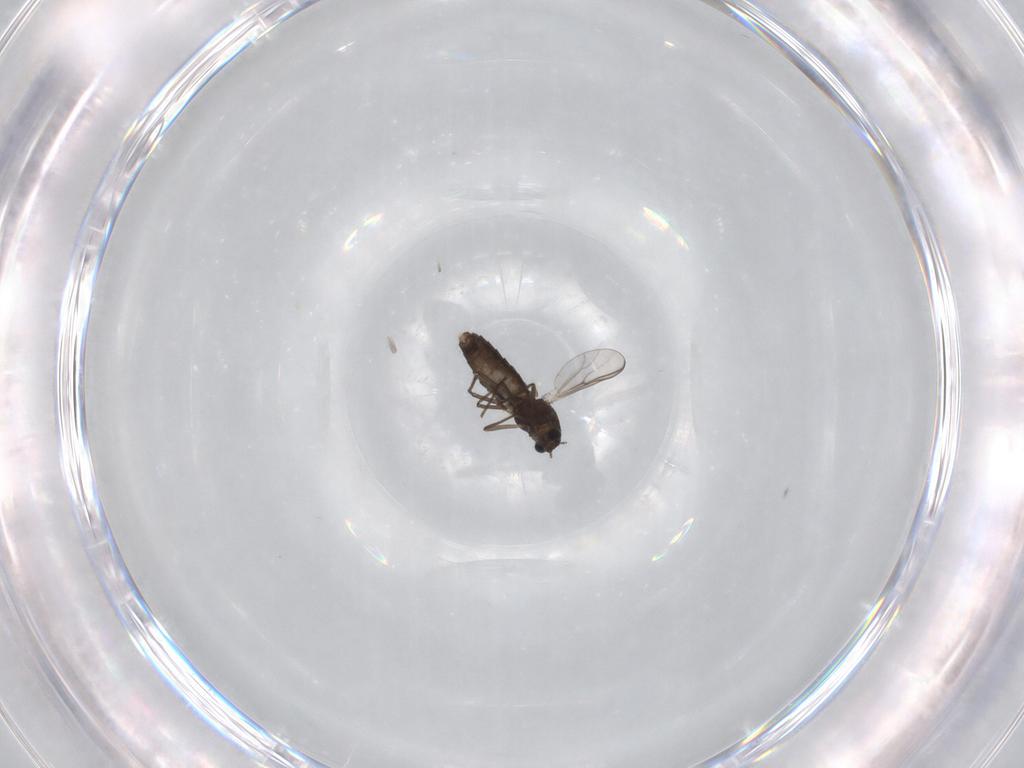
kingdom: Animalia
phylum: Arthropoda
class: Insecta
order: Diptera
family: Chironomidae
